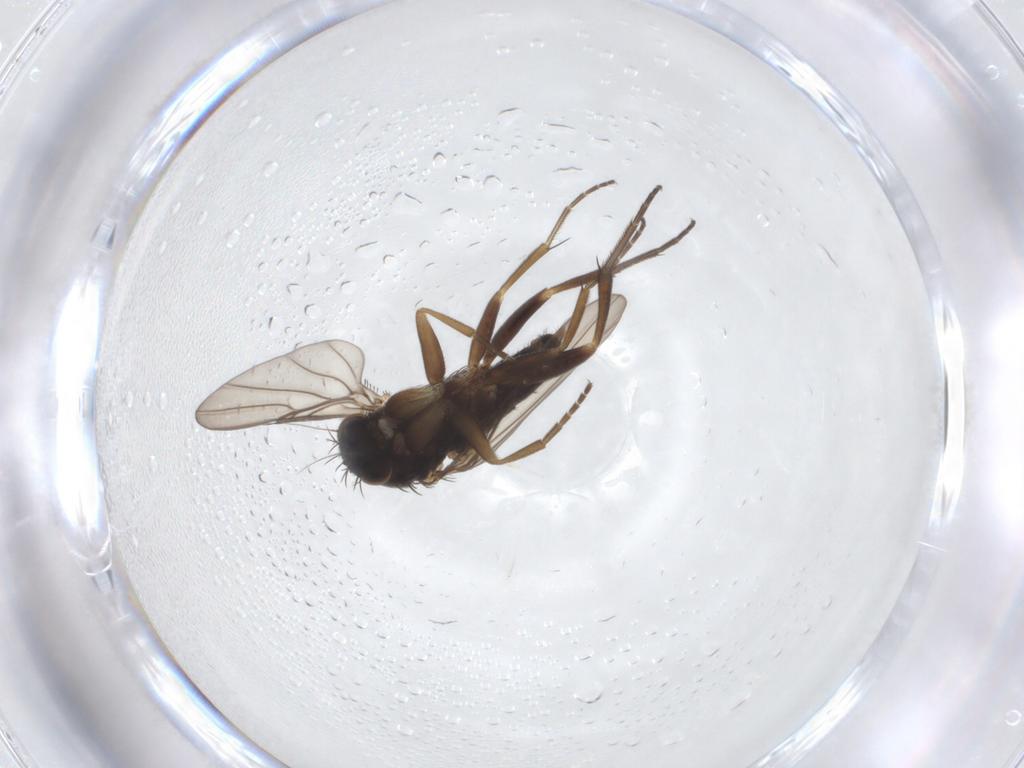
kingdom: Animalia
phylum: Arthropoda
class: Insecta
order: Diptera
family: Phoridae
